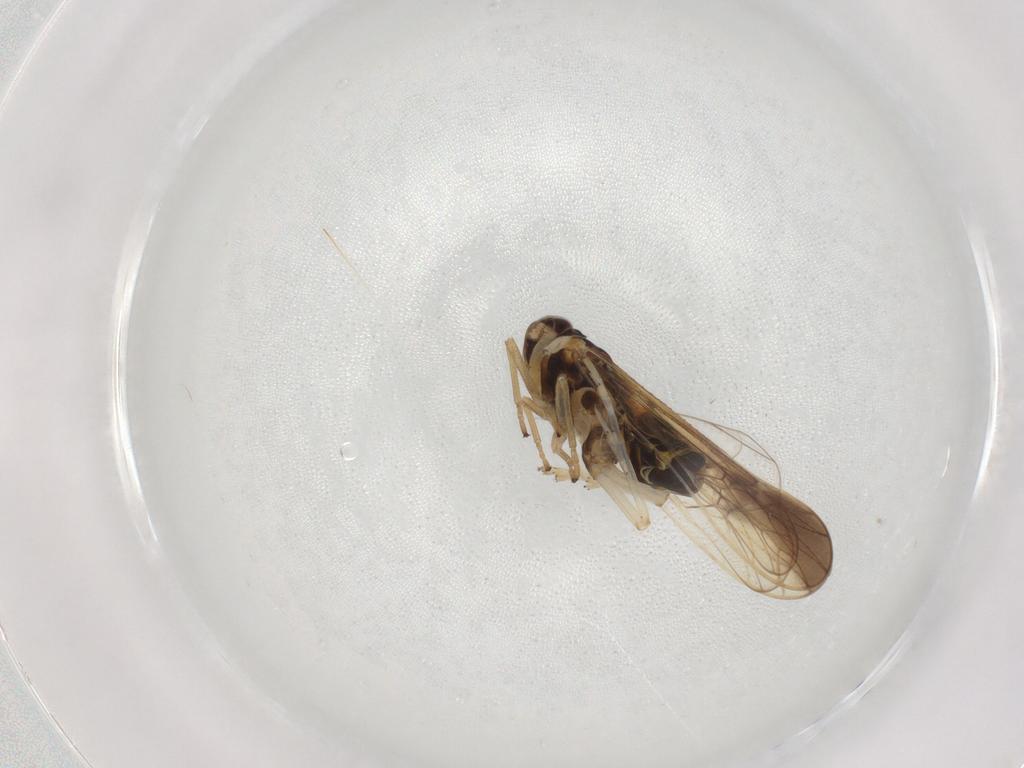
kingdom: Animalia
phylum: Arthropoda
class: Insecta
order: Hemiptera
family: Delphacidae
